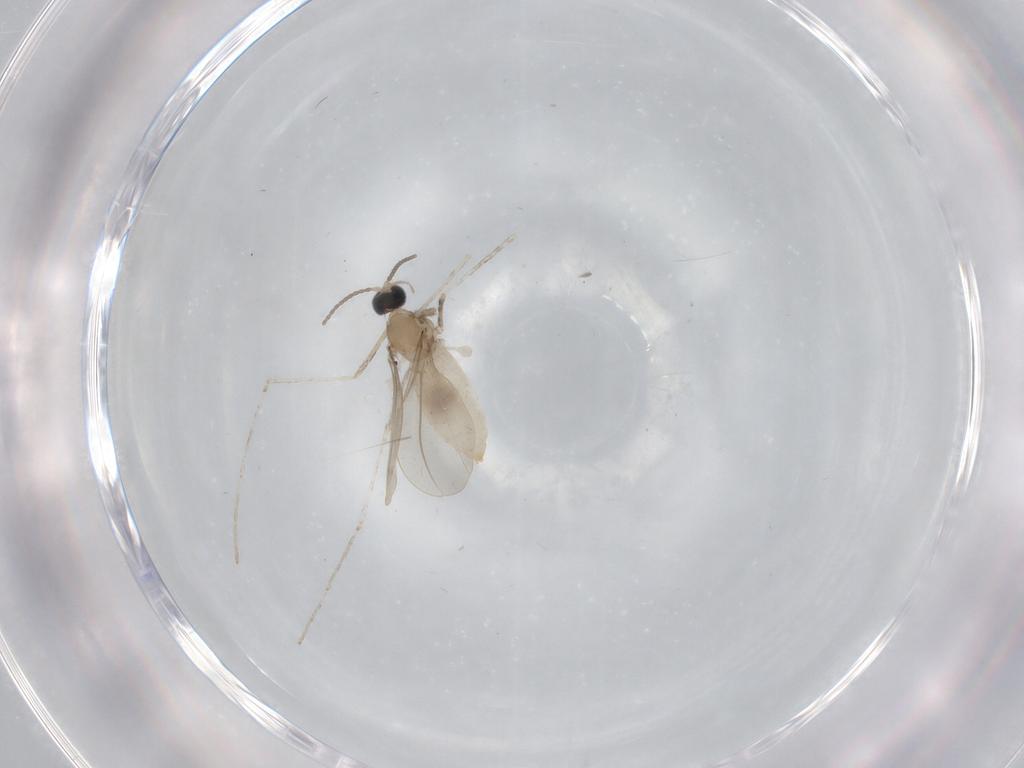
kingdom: Animalia
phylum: Arthropoda
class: Insecta
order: Diptera
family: Cecidomyiidae
